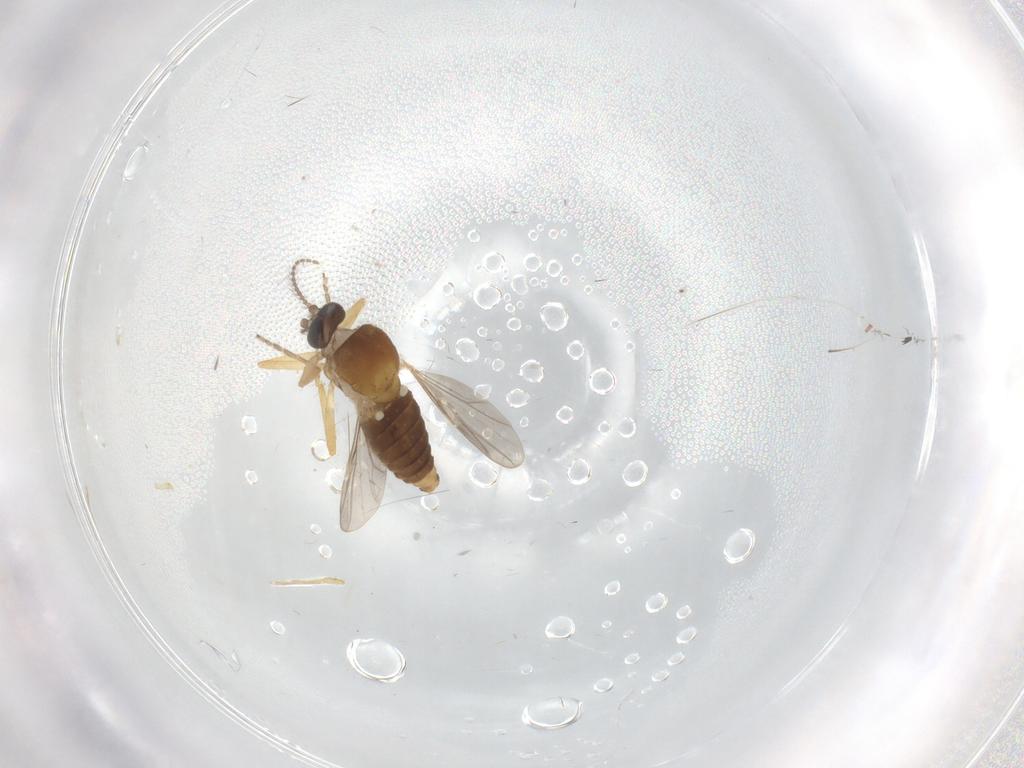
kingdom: Animalia
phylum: Arthropoda
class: Insecta
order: Diptera
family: Ceratopogonidae
